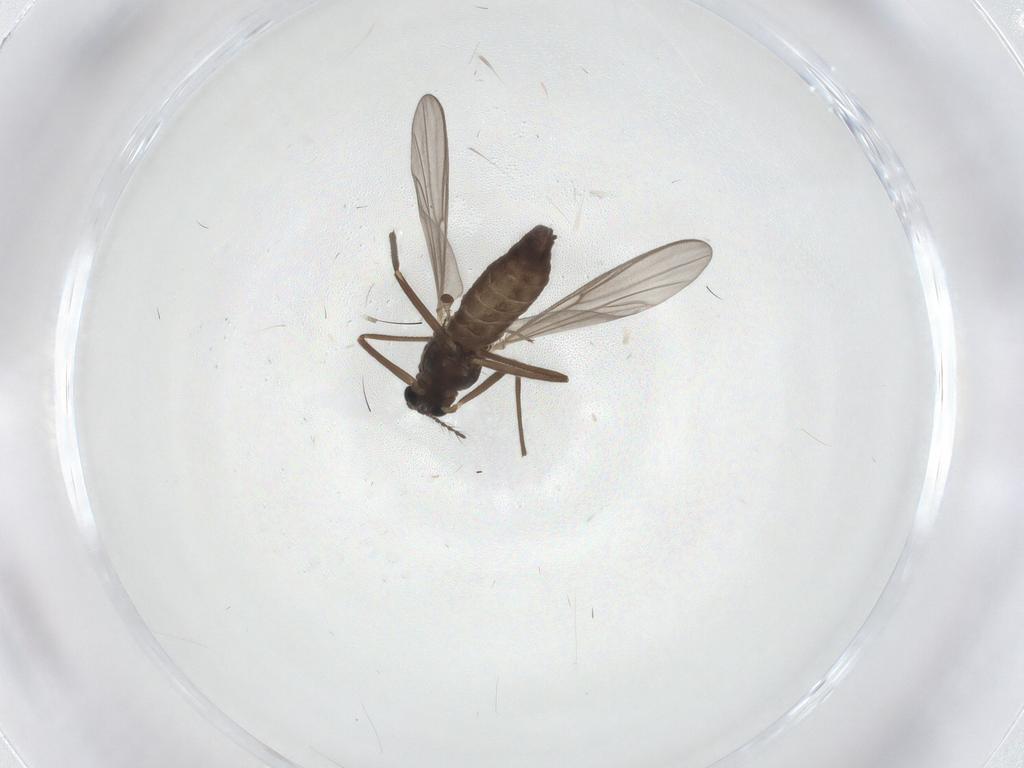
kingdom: Animalia
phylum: Arthropoda
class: Insecta
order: Diptera
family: Chironomidae
